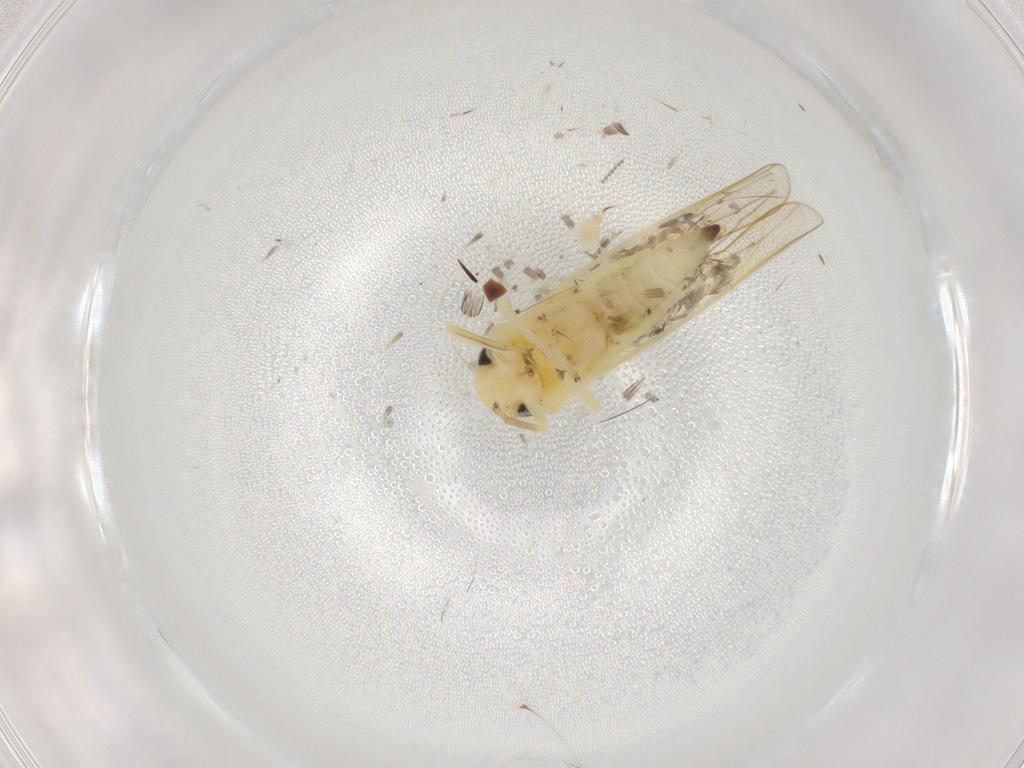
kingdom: Animalia
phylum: Arthropoda
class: Insecta
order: Hemiptera
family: Cicadellidae
